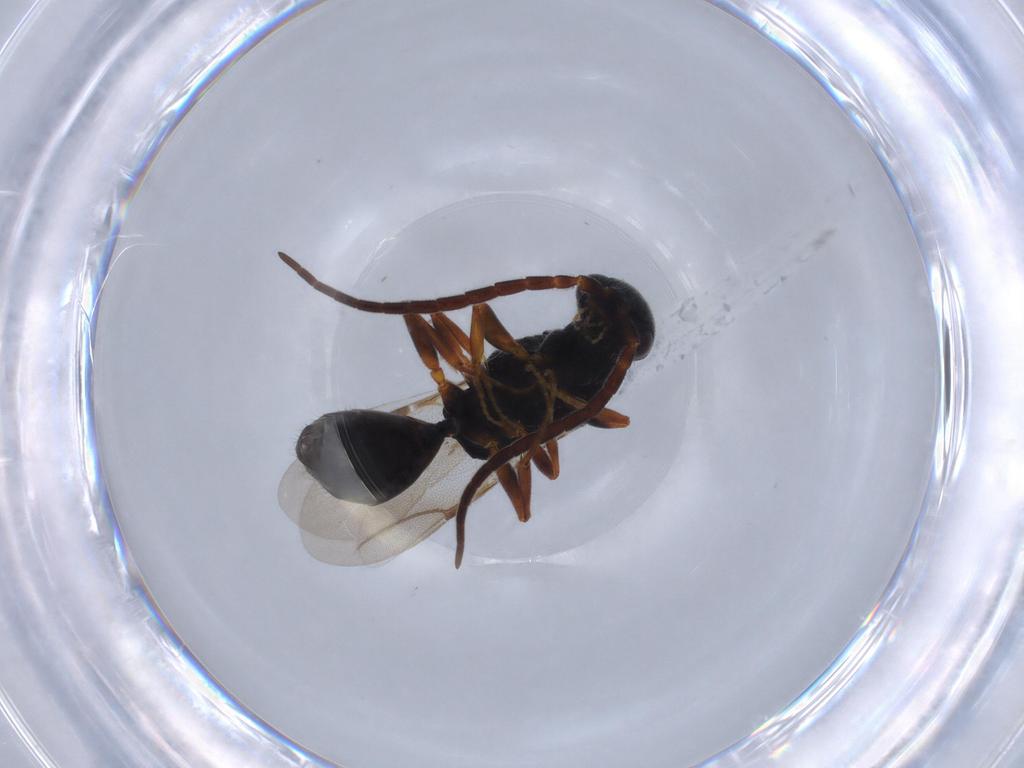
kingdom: Animalia
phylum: Arthropoda
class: Insecta
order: Hymenoptera
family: Bethylidae
